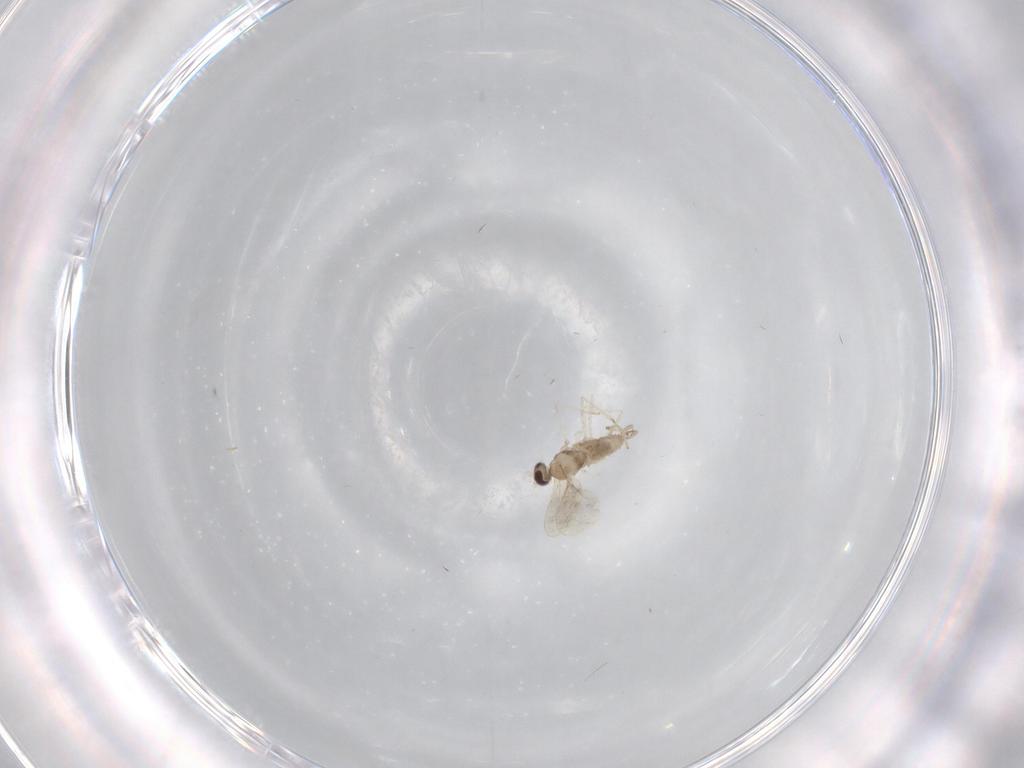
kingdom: Animalia
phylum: Arthropoda
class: Insecta
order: Diptera
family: Cecidomyiidae
